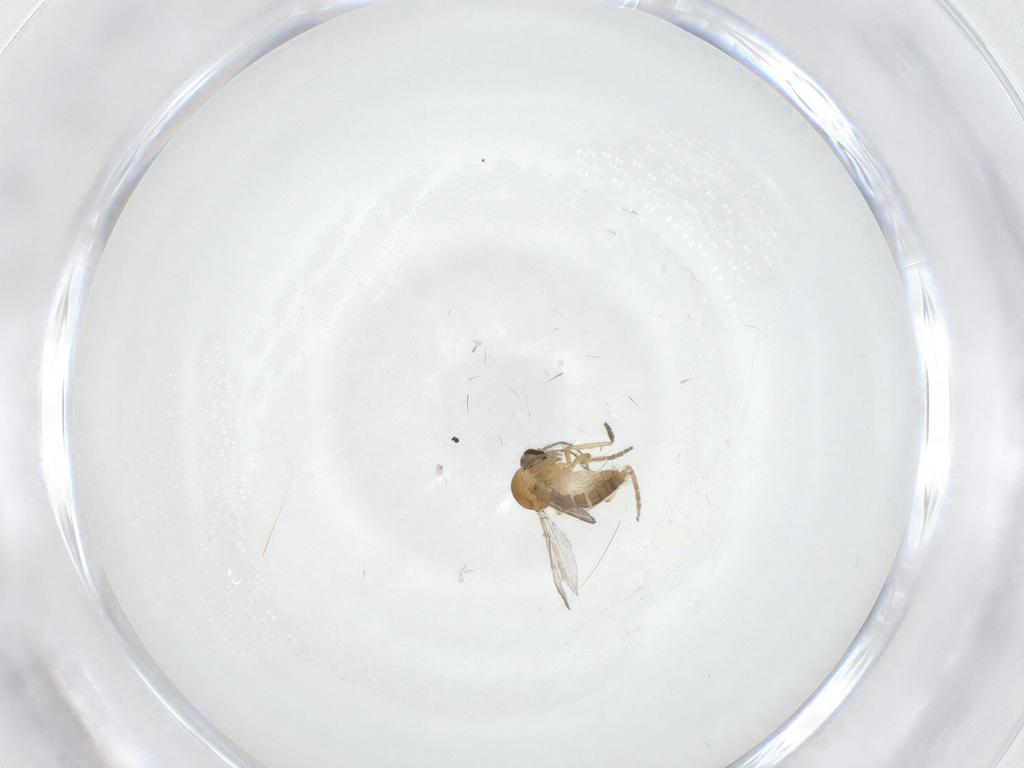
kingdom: Animalia
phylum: Arthropoda
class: Insecta
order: Diptera
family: Ceratopogonidae
